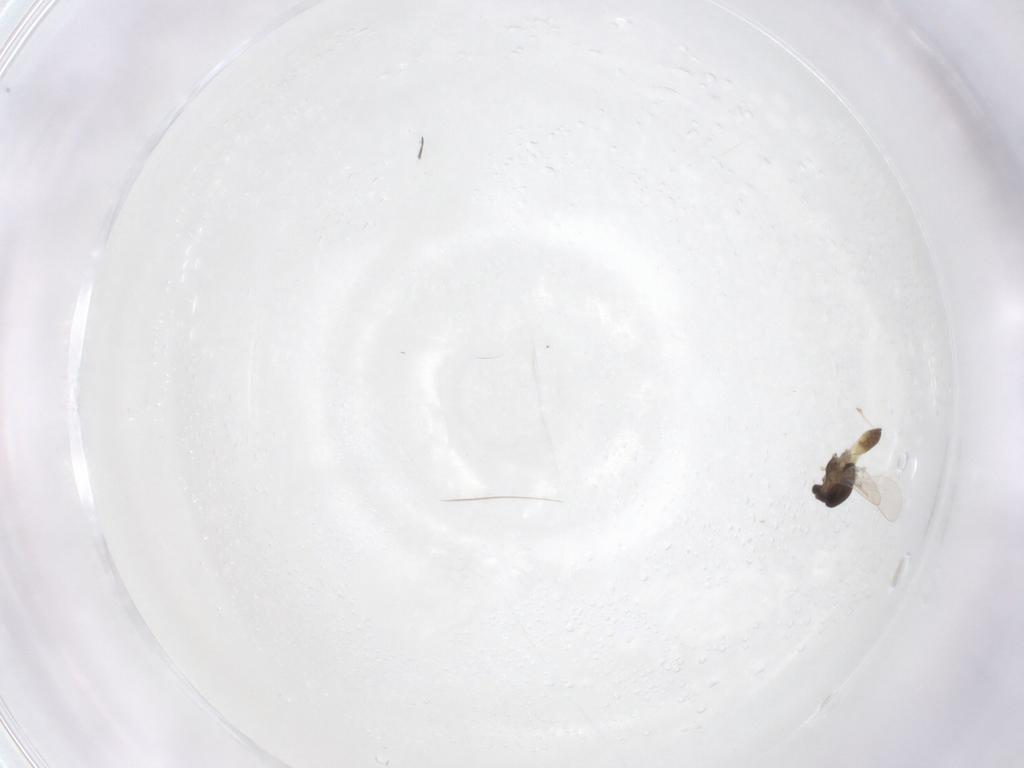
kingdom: Animalia
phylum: Arthropoda
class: Insecta
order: Diptera
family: Chironomidae
